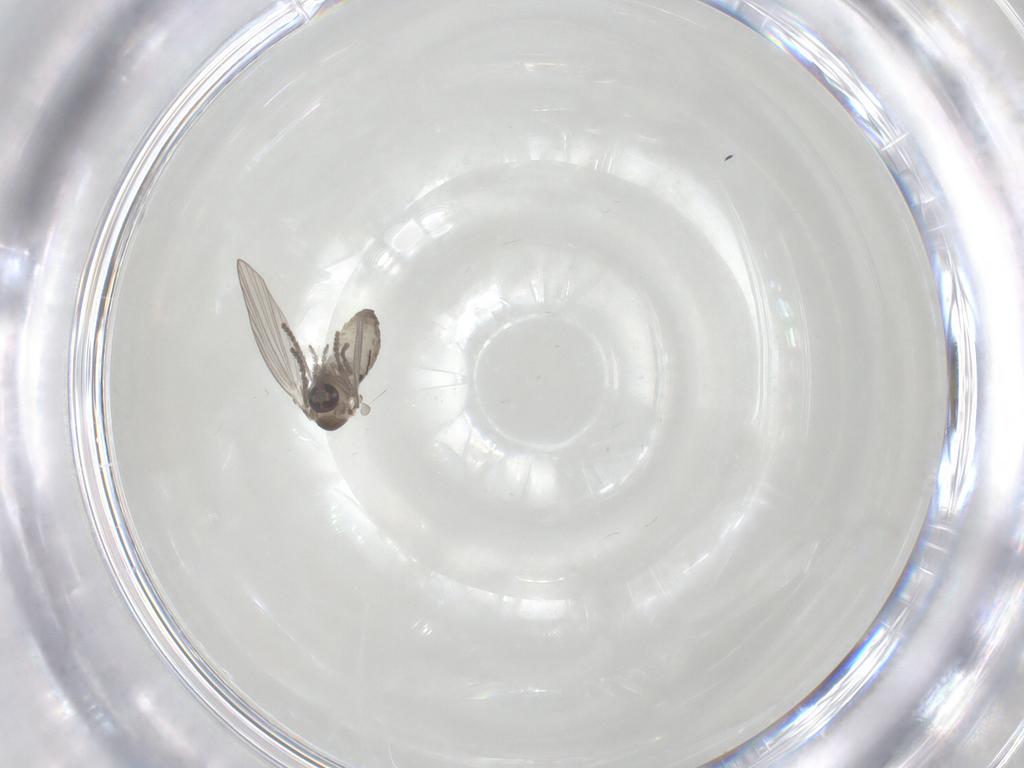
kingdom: Animalia
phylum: Arthropoda
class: Insecta
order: Diptera
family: Psychodidae
